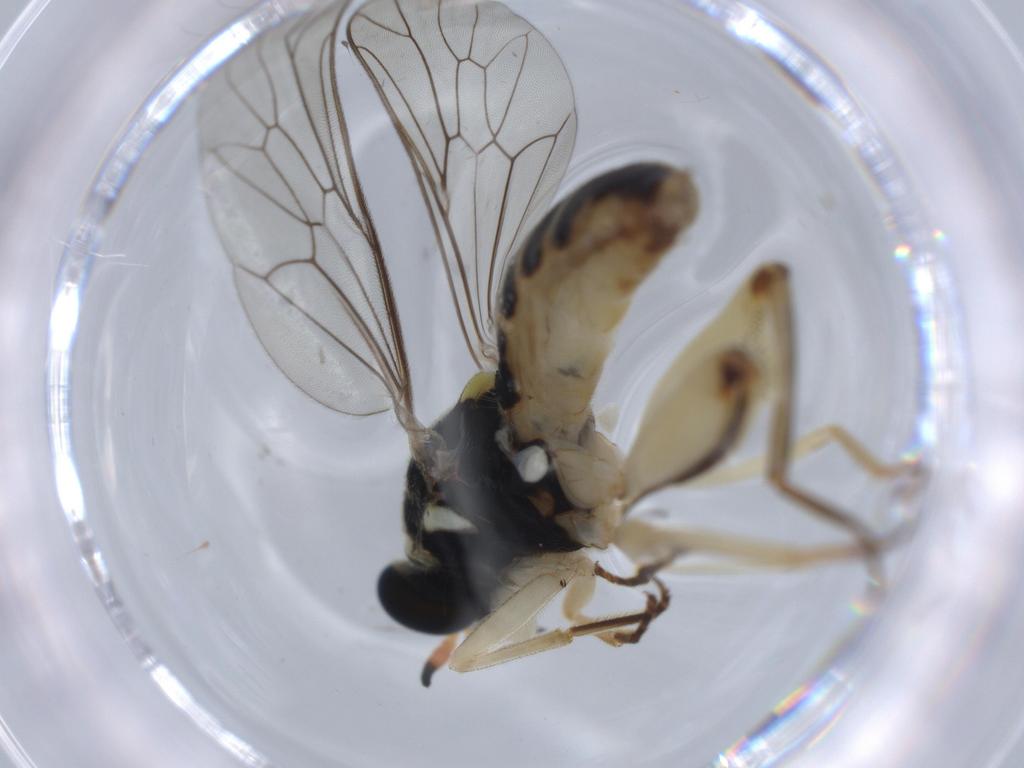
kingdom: Animalia
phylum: Arthropoda
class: Insecta
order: Diptera
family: Xylomyidae
